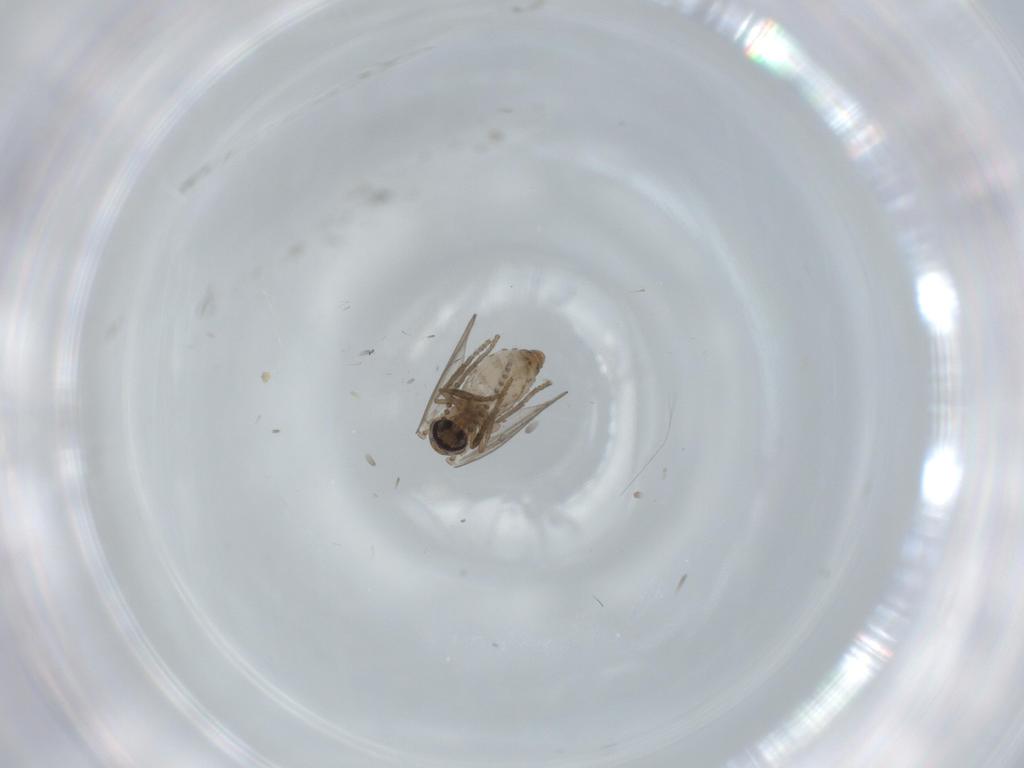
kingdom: Animalia
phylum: Arthropoda
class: Insecta
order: Diptera
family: Psychodidae
